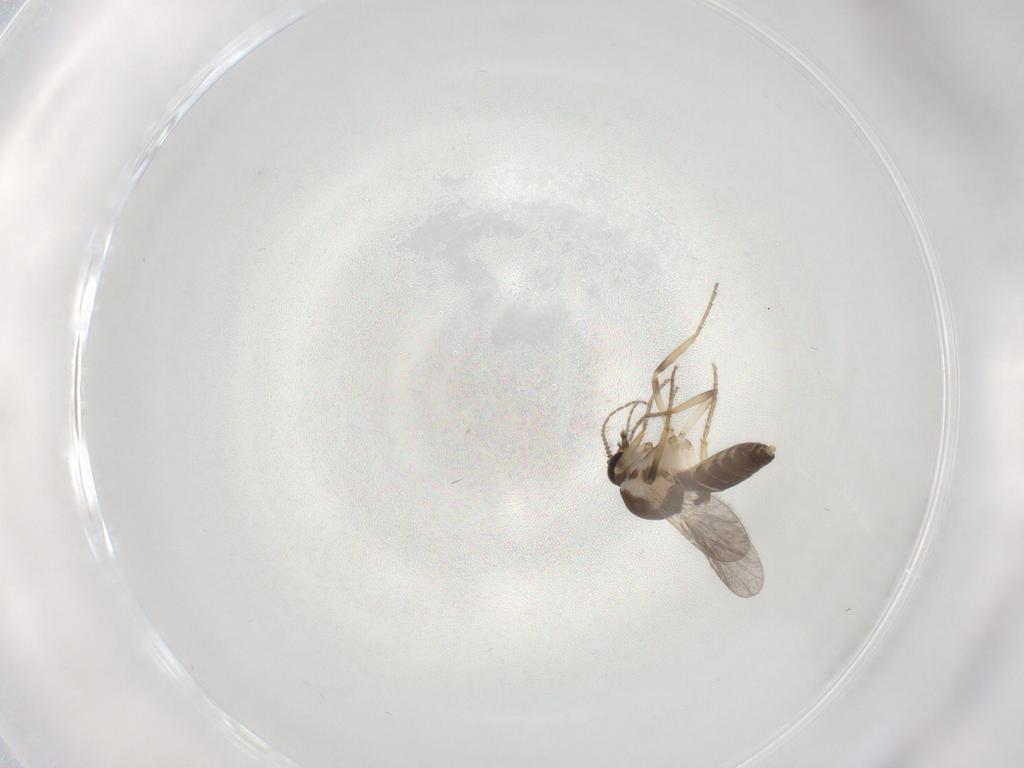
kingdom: Animalia
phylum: Arthropoda
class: Insecta
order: Diptera
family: Ceratopogonidae
